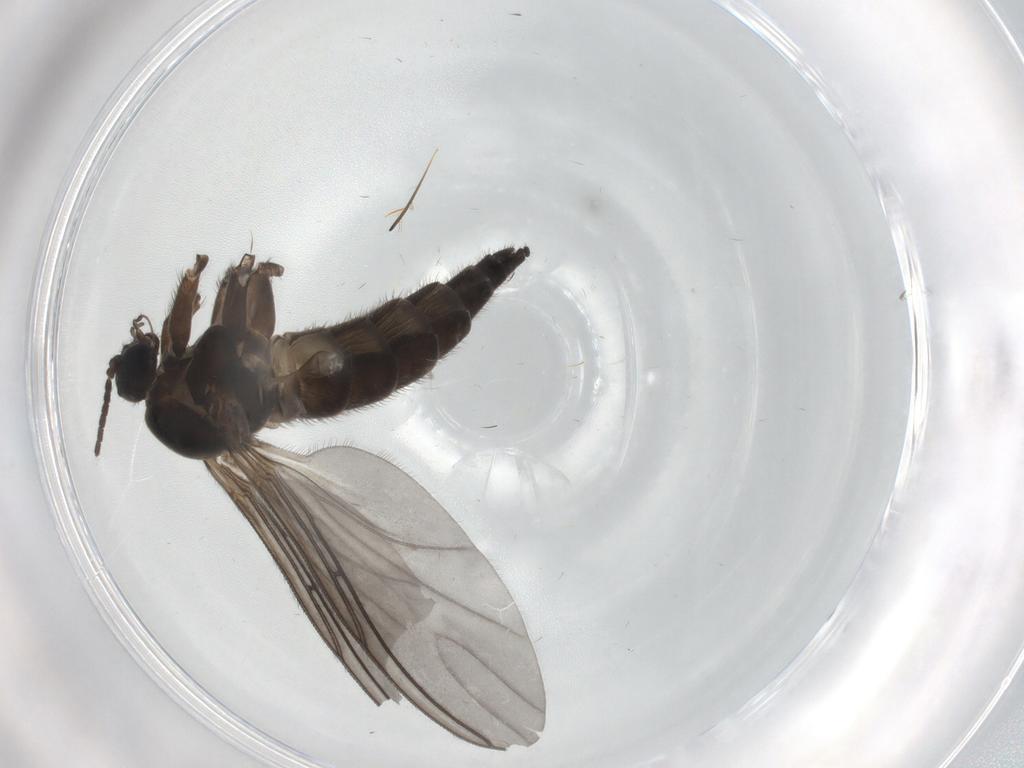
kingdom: Animalia
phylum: Arthropoda
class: Insecta
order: Diptera
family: Sciaridae
